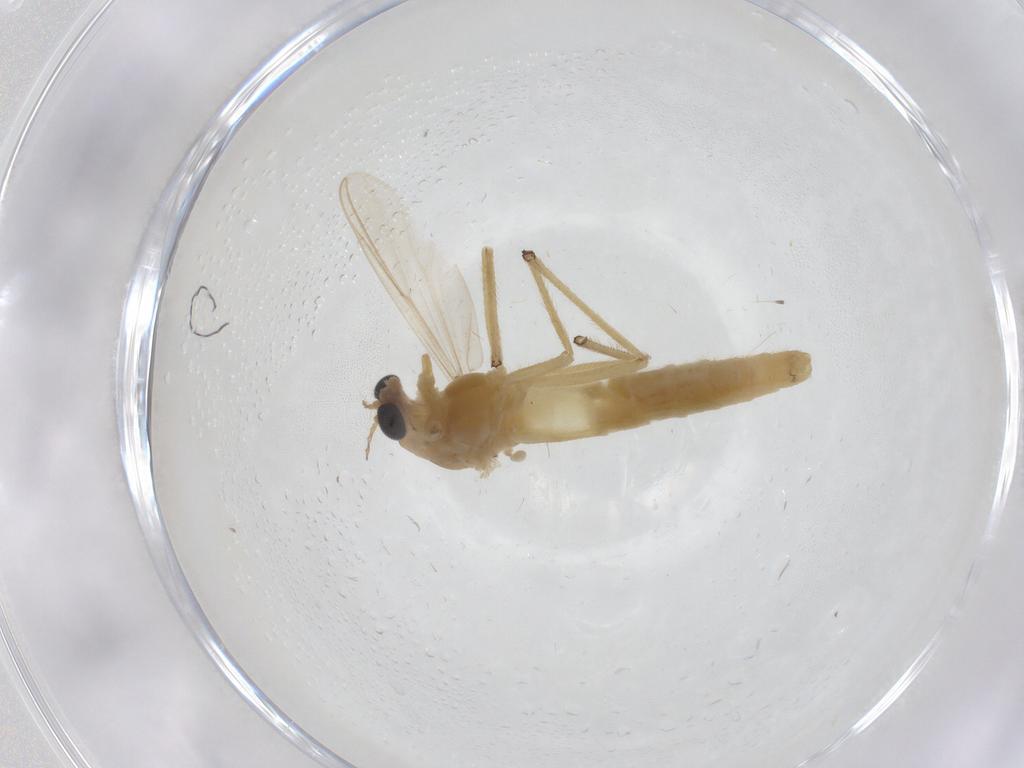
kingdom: Animalia
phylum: Arthropoda
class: Insecta
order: Diptera
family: Chironomidae
